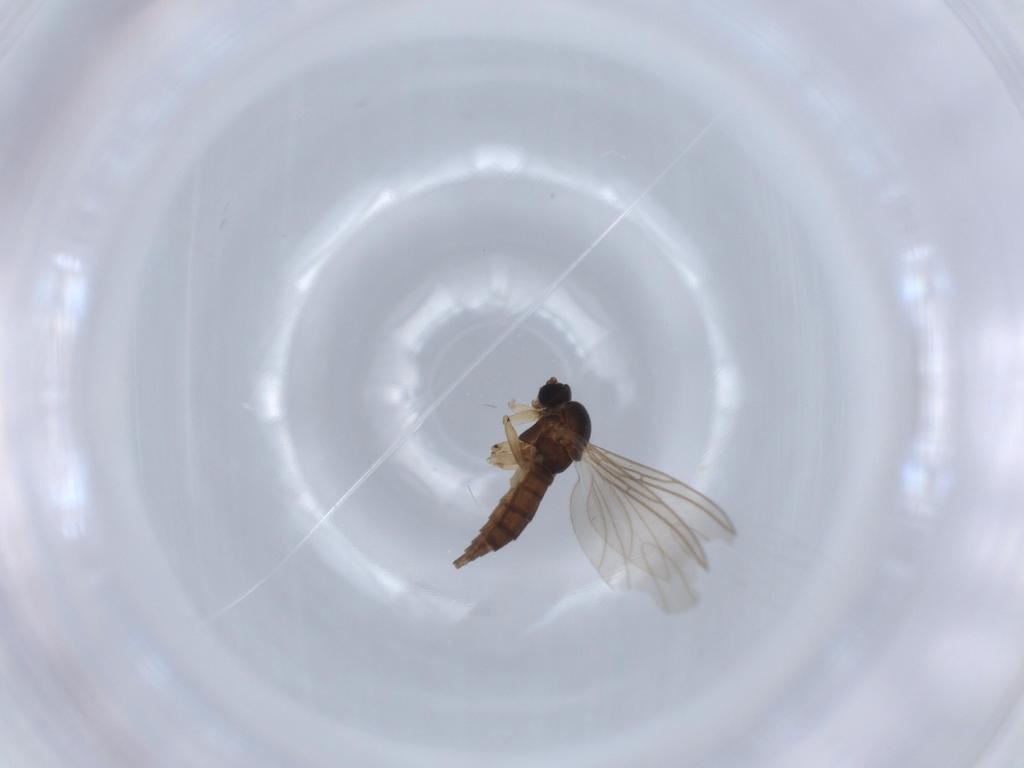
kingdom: Animalia
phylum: Arthropoda
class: Insecta
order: Diptera
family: Sciaridae
